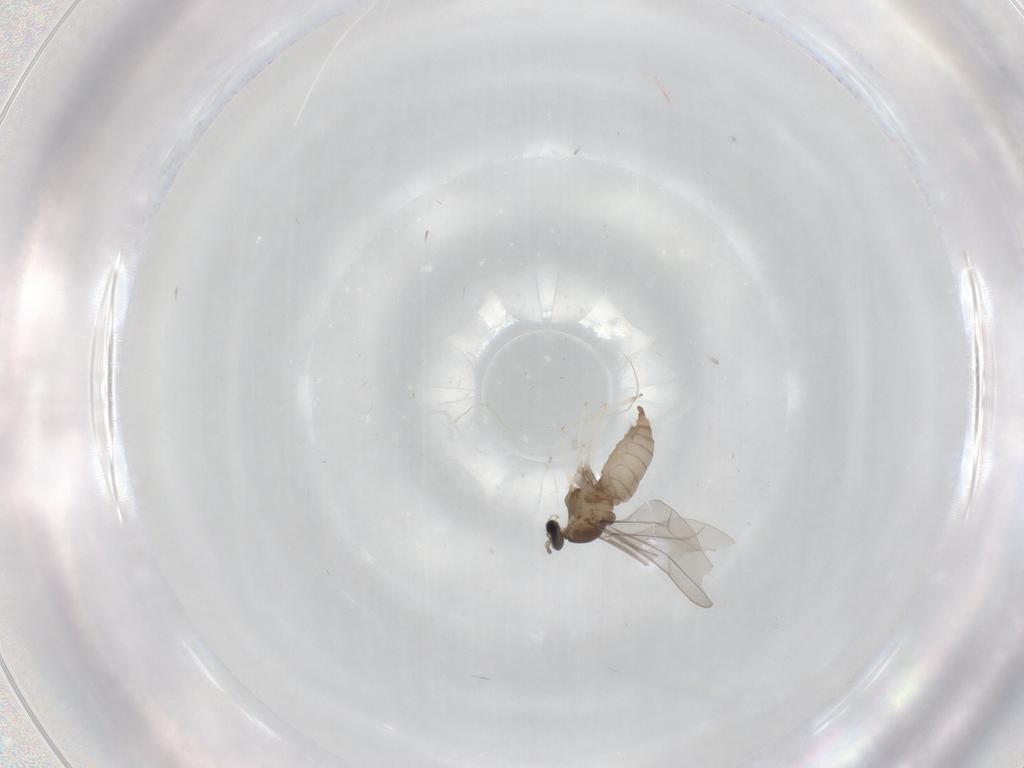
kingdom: Animalia
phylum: Arthropoda
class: Insecta
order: Diptera
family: Cecidomyiidae
